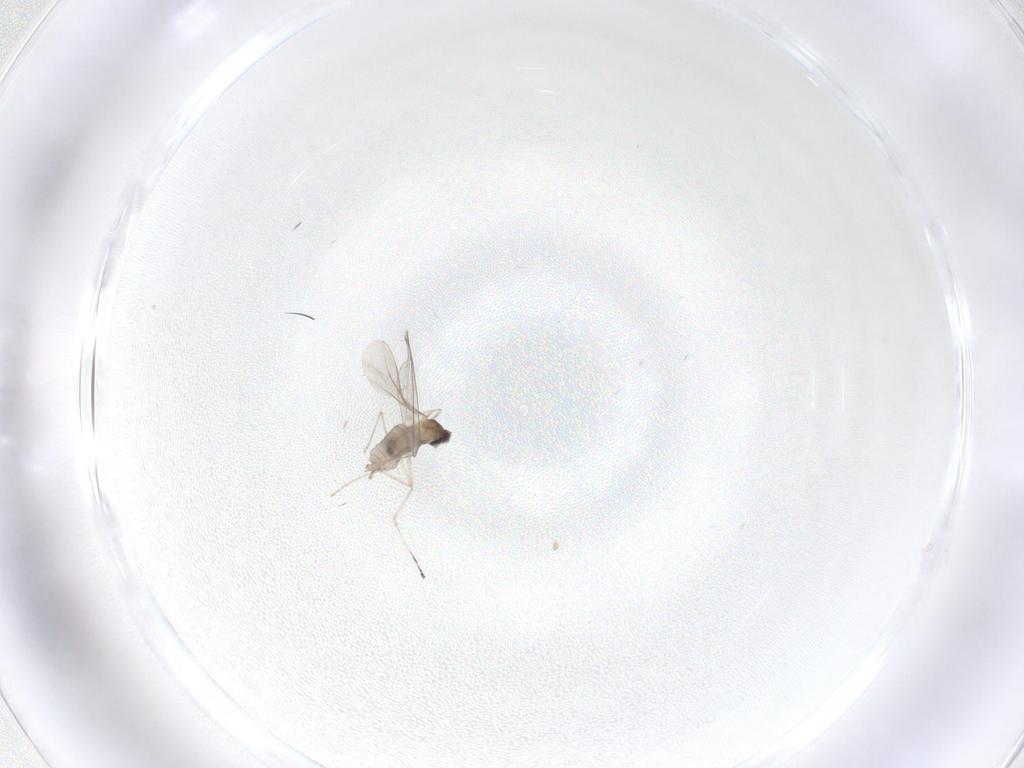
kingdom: Animalia
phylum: Arthropoda
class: Insecta
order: Diptera
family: Cecidomyiidae
